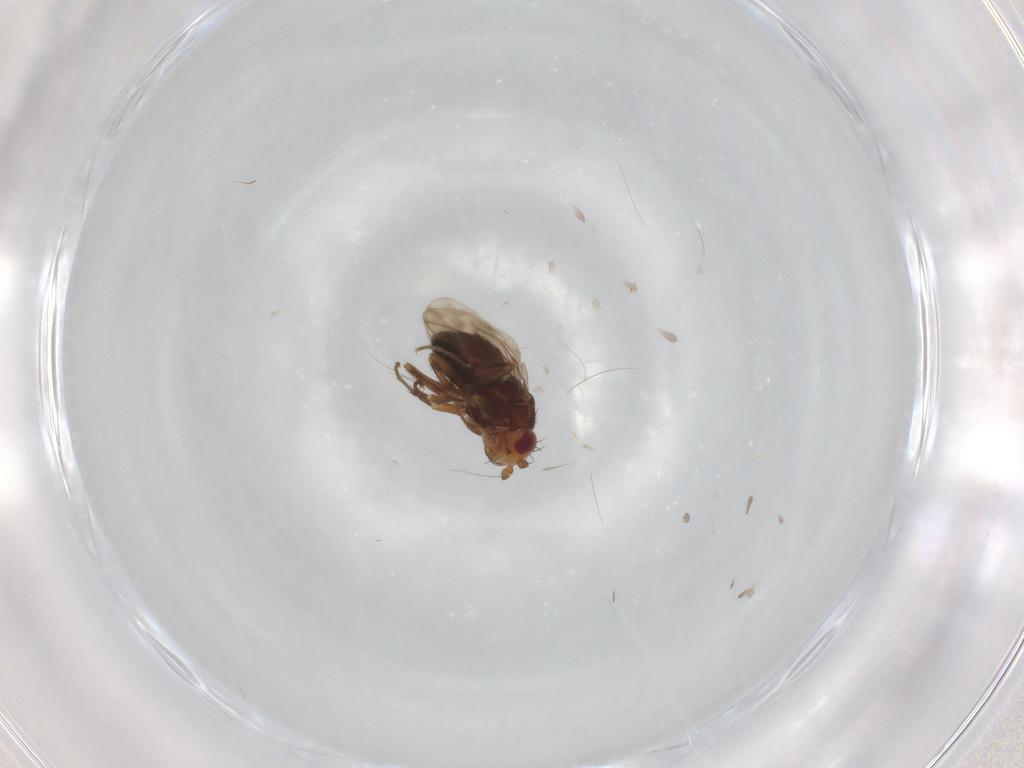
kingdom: Animalia
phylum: Arthropoda
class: Insecta
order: Diptera
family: Sphaeroceridae
